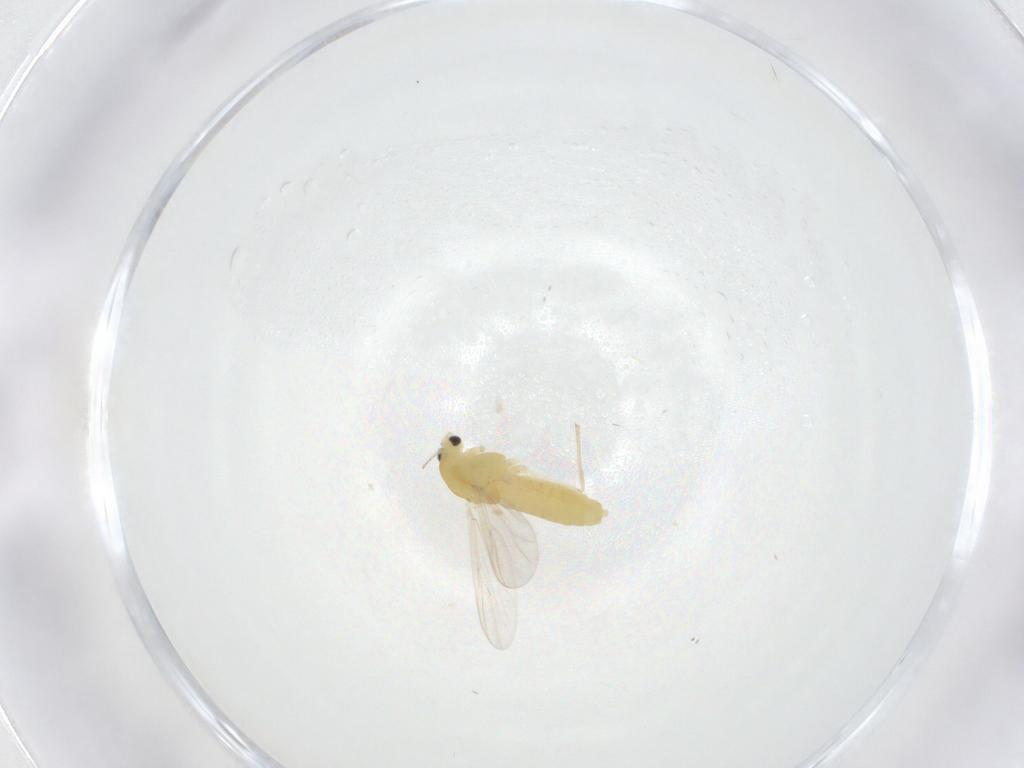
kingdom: Animalia
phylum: Arthropoda
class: Insecta
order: Diptera
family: Chironomidae
